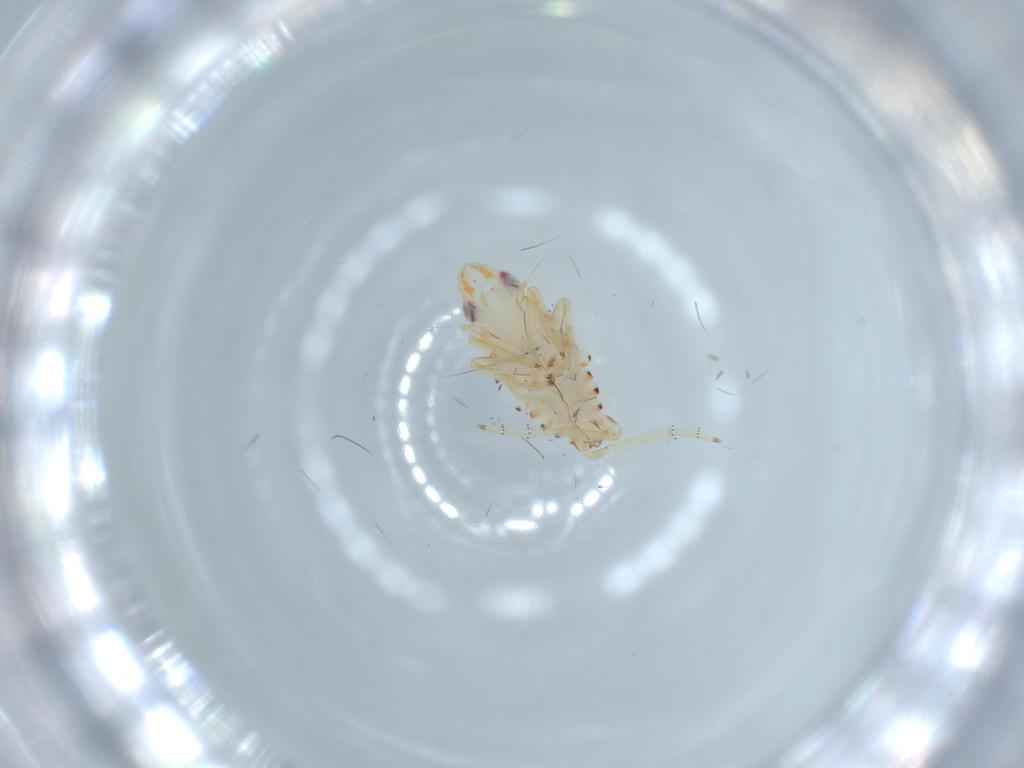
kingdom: Animalia
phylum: Arthropoda
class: Insecta
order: Hemiptera
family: Tropiduchidae
